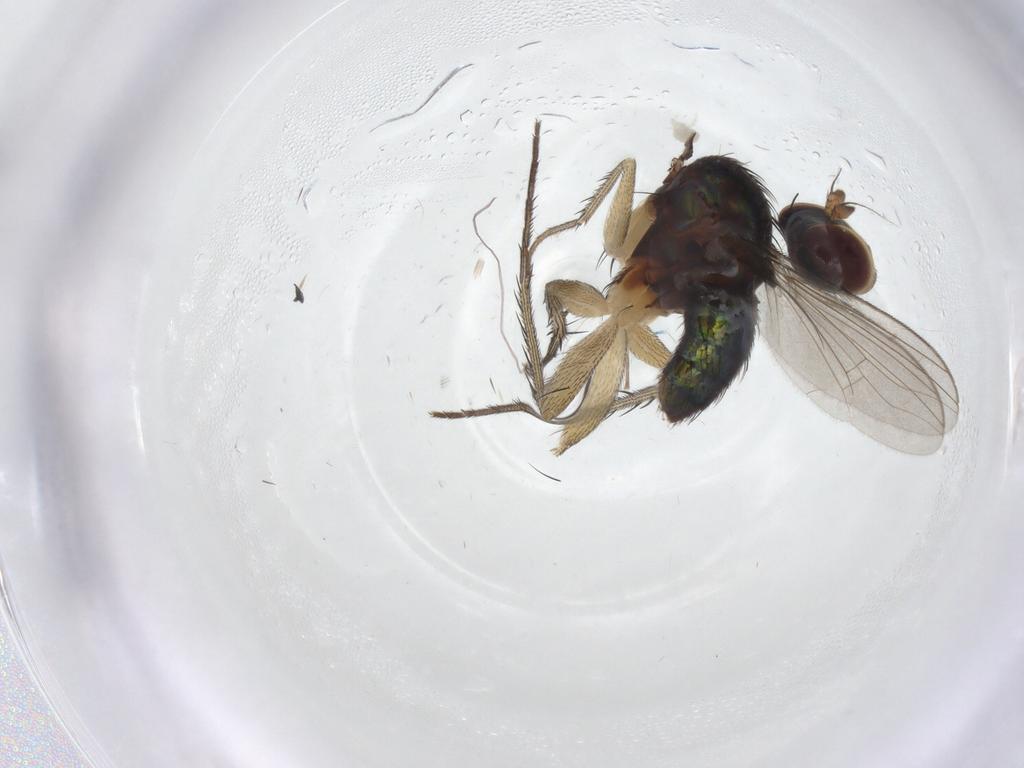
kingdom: Animalia
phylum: Arthropoda
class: Insecta
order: Diptera
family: Dolichopodidae
